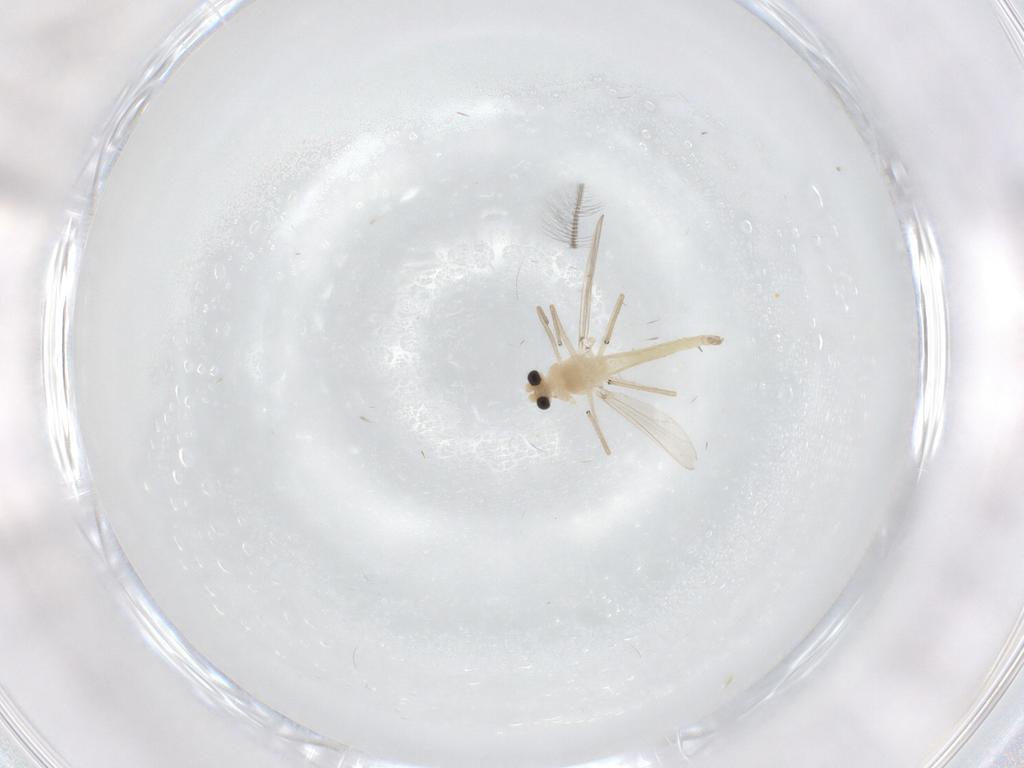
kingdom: Animalia
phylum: Arthropoda
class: Insecta
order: Diptera
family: Chironomidae
